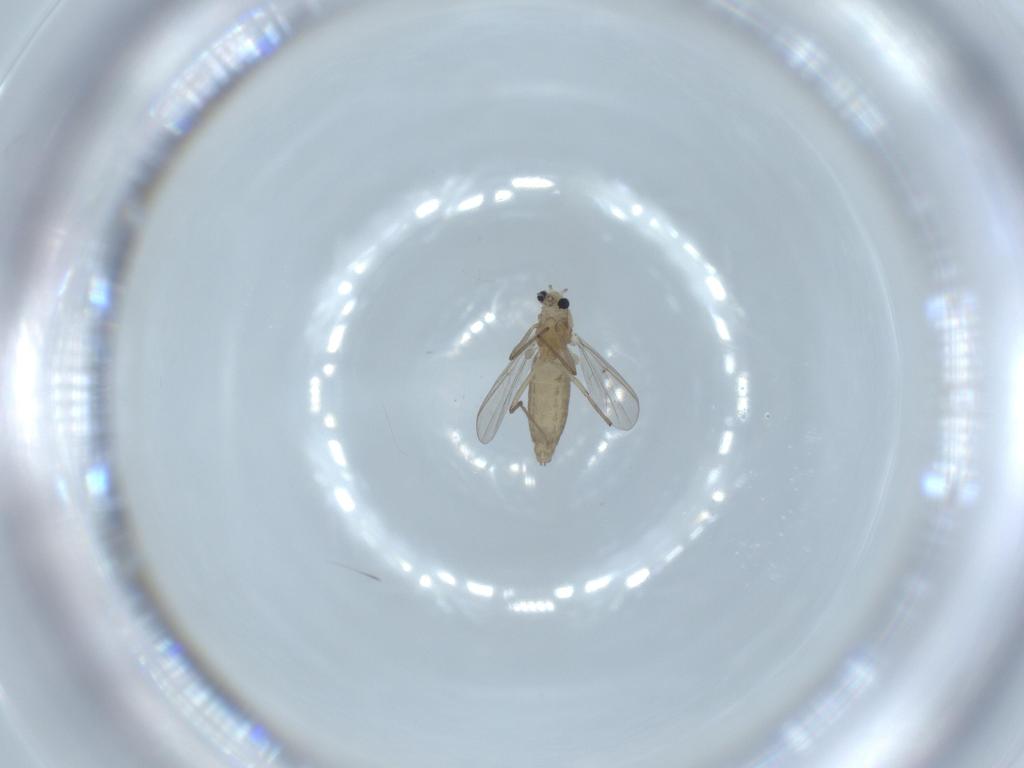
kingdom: Animalia
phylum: Arthropoda
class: Insecta
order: Diptera
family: Chironomidae
